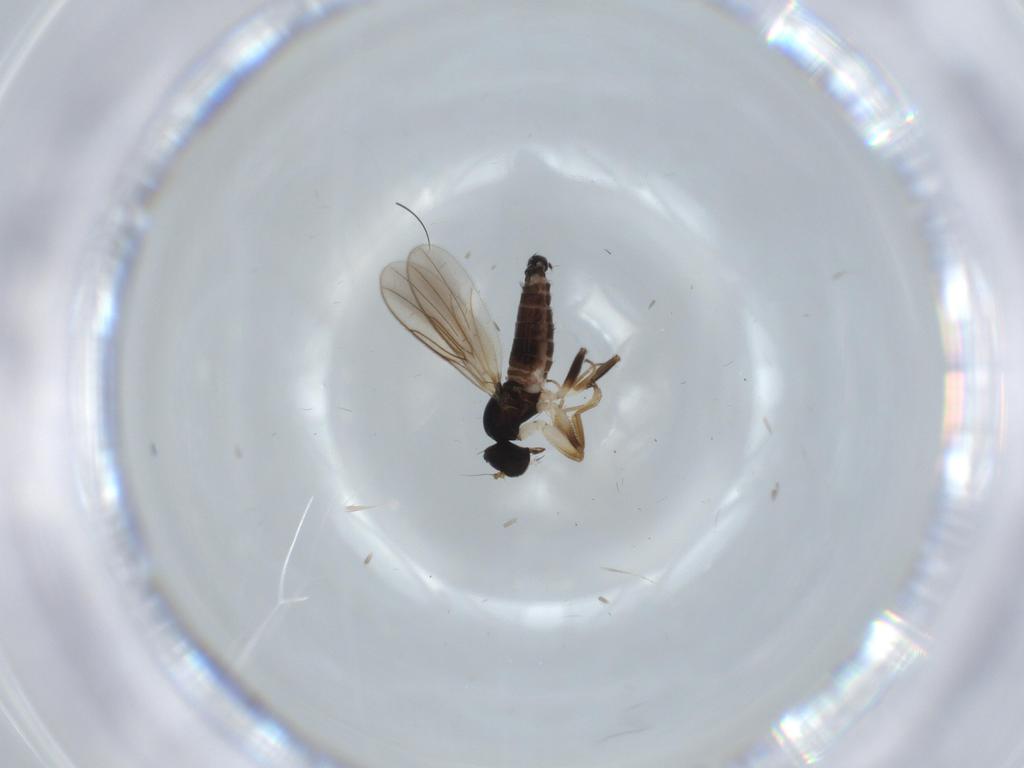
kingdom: Animalia
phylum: Arthropoda
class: Insecta
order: Diptera
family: Hybotidae
